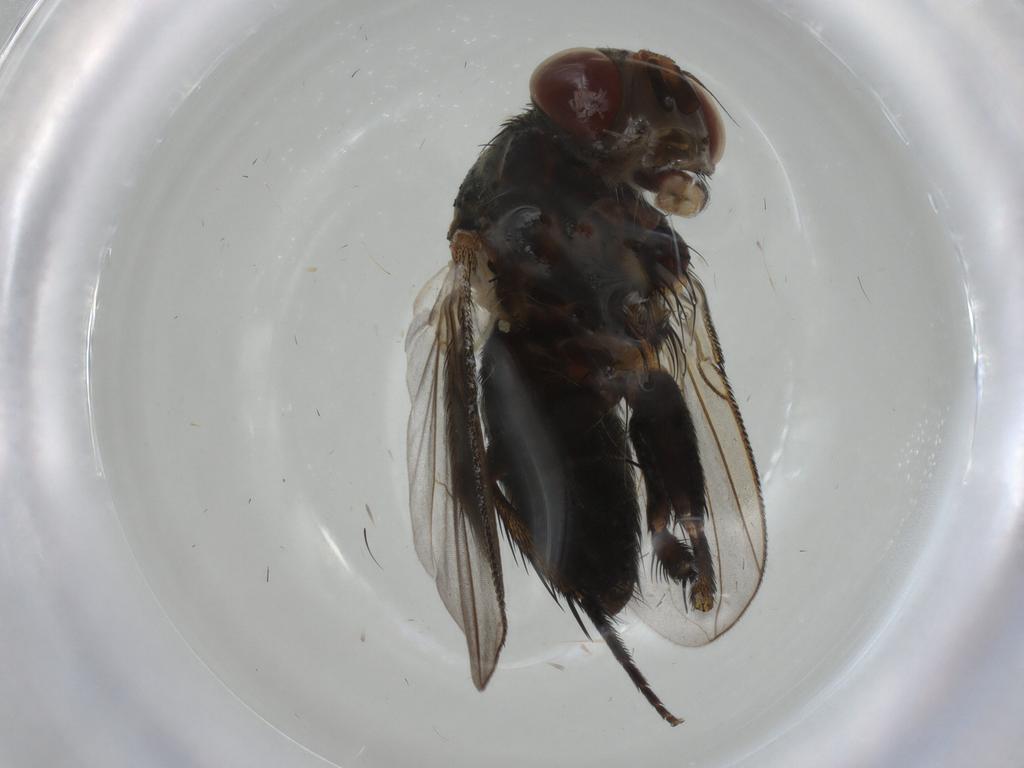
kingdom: Animalia
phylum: Arthropoda
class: Insecta
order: Diptera
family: Tachinidae
